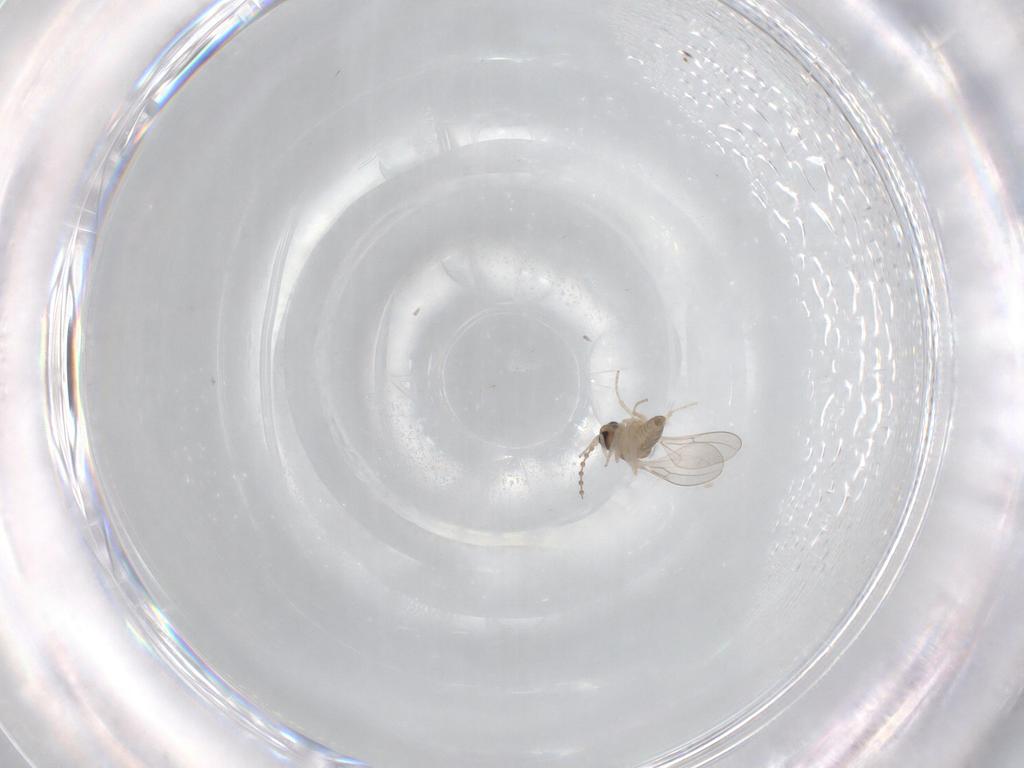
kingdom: Animalia
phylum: Arthropoda
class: Insecta
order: Diptera
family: Cecidomyiidae
